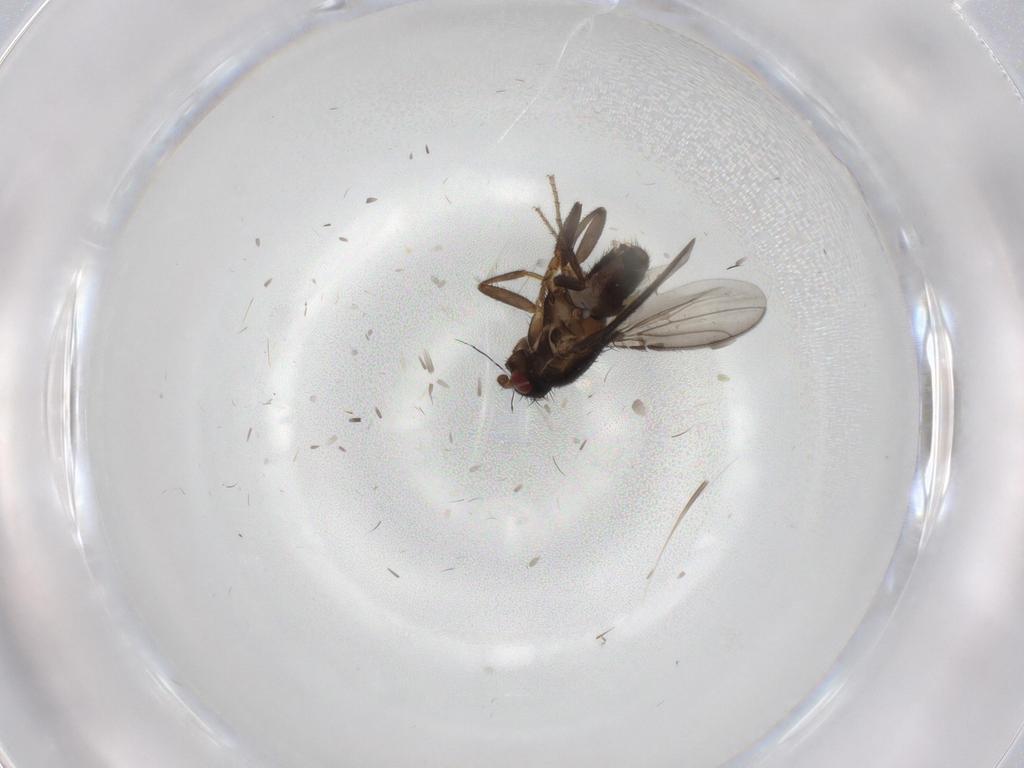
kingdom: Animalia
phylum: Arthropoda
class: Insecta
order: Diptera
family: Sphaeroceridae
